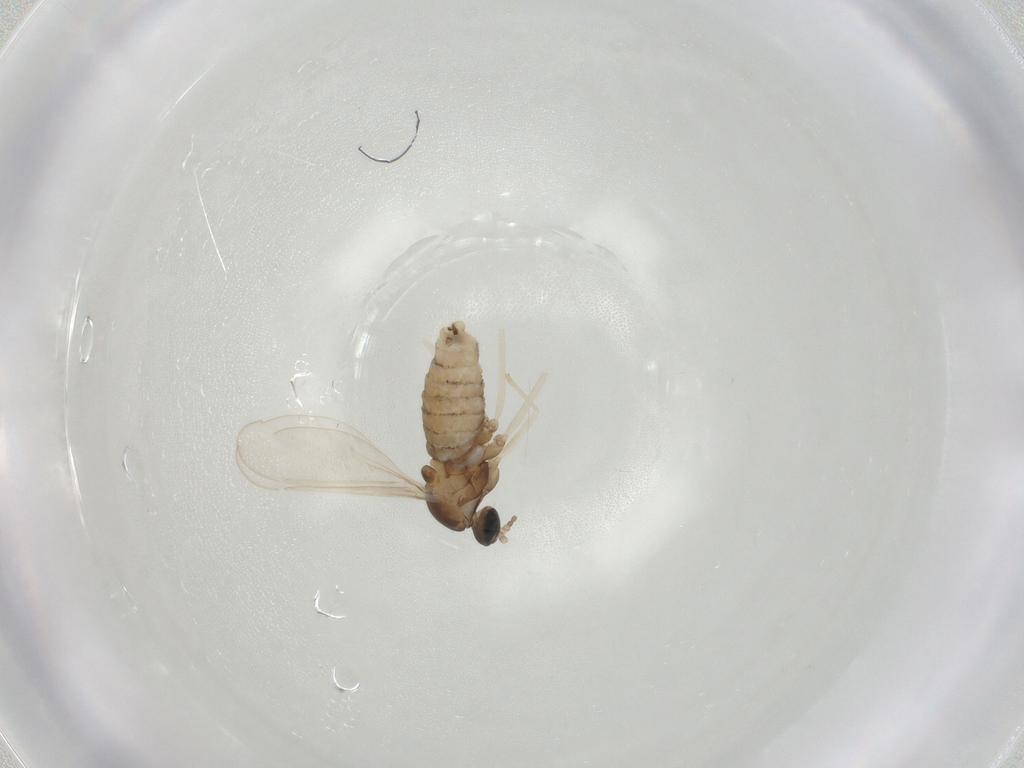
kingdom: Animalia
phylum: Arthropoda
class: Insecta
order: Diptera
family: Cecidomyiidae
